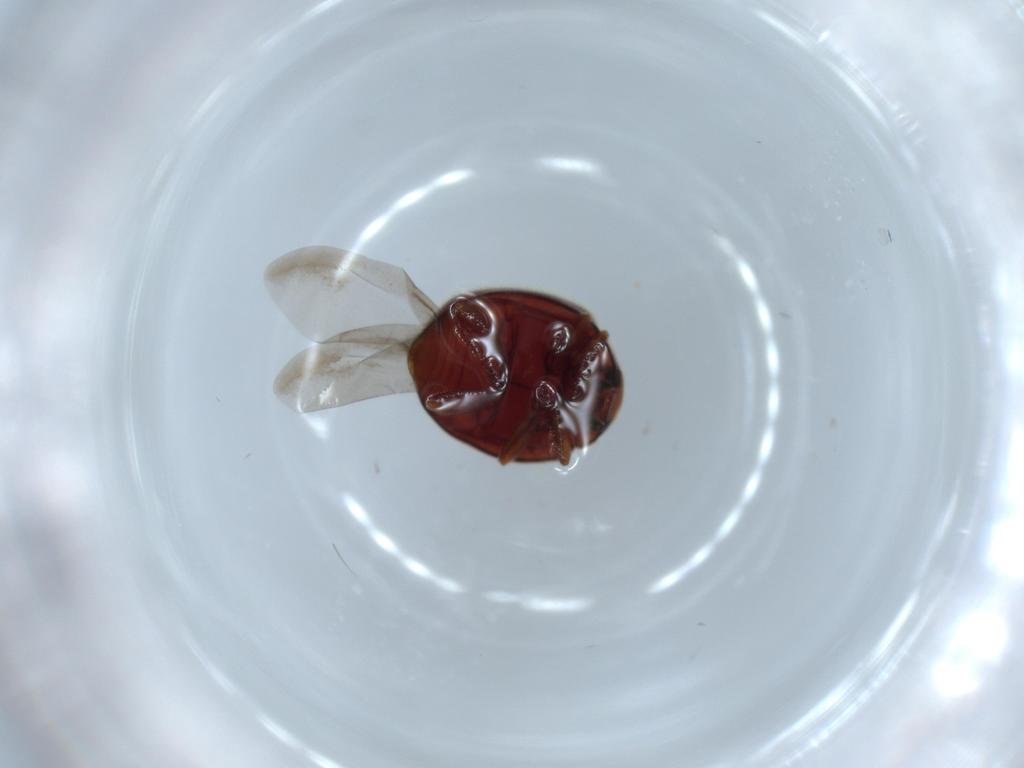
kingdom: Animalia
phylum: Arthropoda
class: Insecta
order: Coleoptera
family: Coccinellidae
